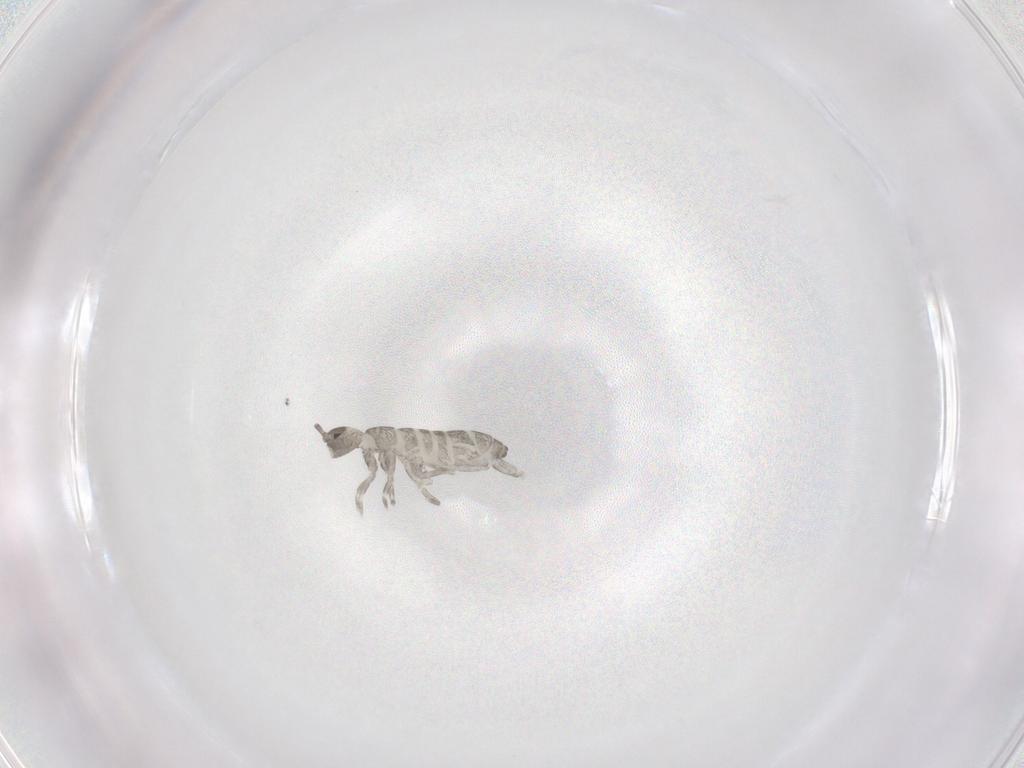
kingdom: Animalia
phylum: Arthropoda
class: Collembola
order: Entomobryomorpha
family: Tomoceridae
